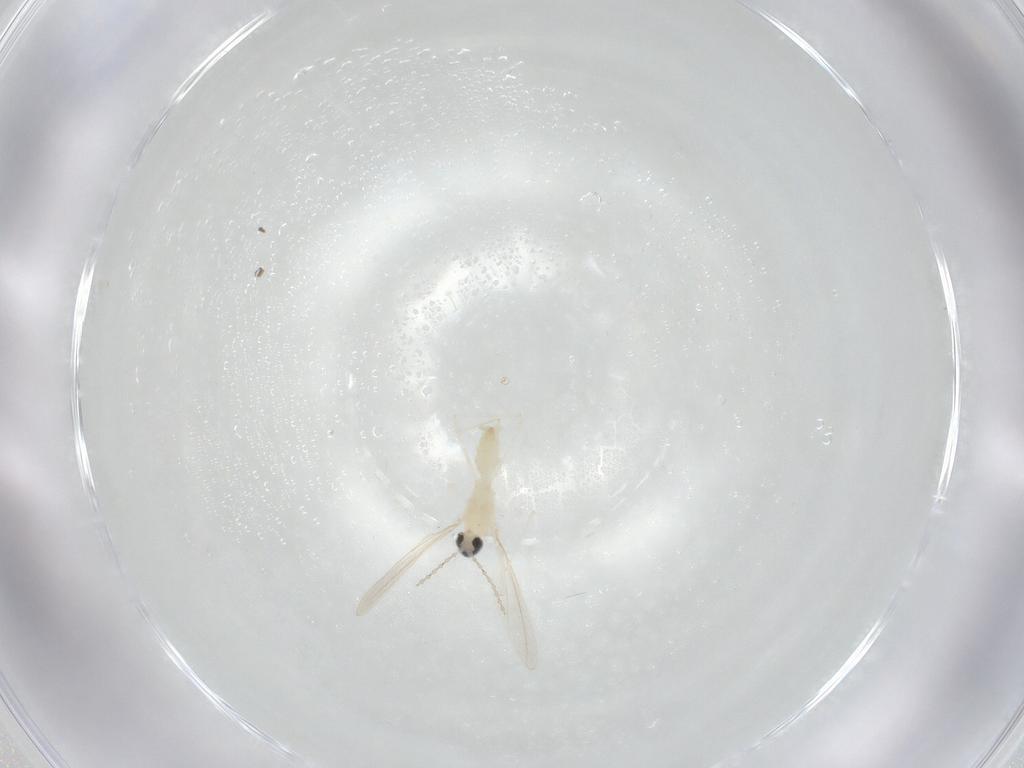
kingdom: Animalia
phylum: Arthropoda
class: Insecta
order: Diptera
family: Cecidomyiidae
